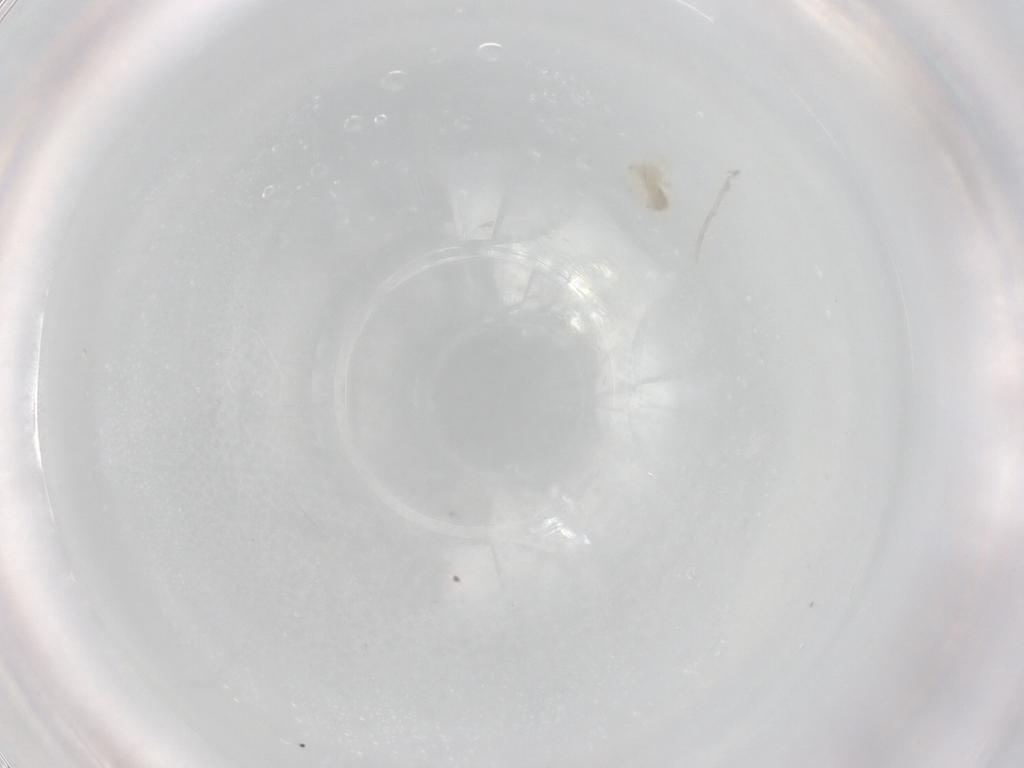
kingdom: Animalia
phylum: Arthropoda
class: Arachnida
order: Trombidiformes
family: Anystidae
